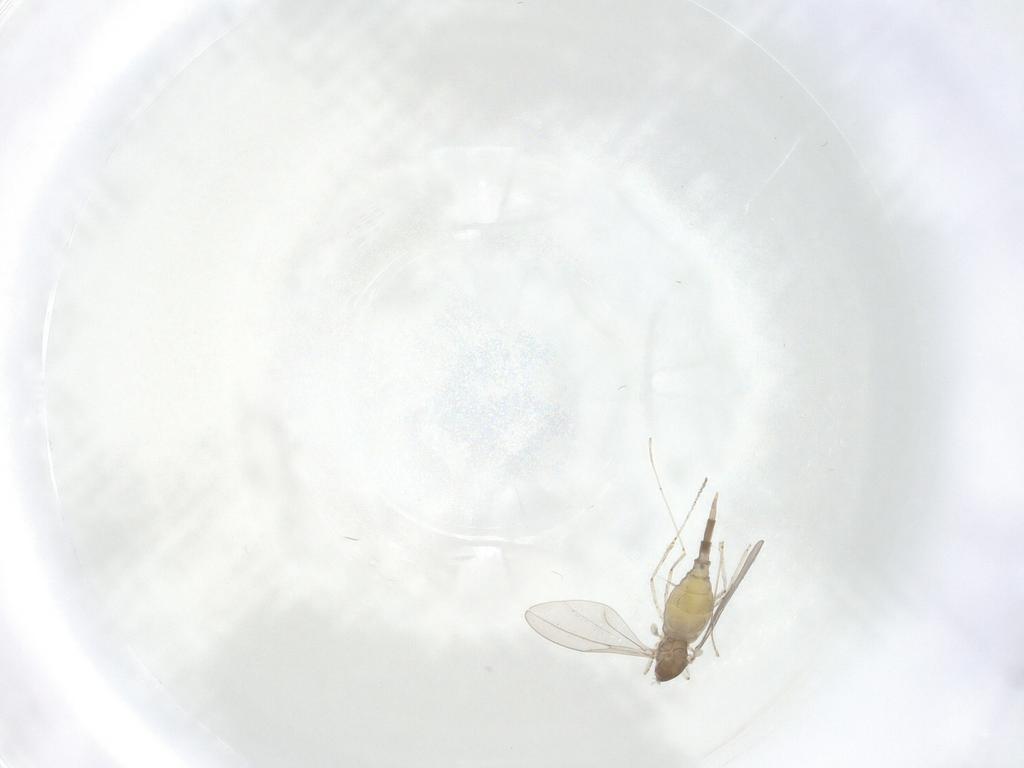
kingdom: Animalia
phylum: Arthropoda
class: Insecta
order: Diptera
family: Cecidomyiidae
